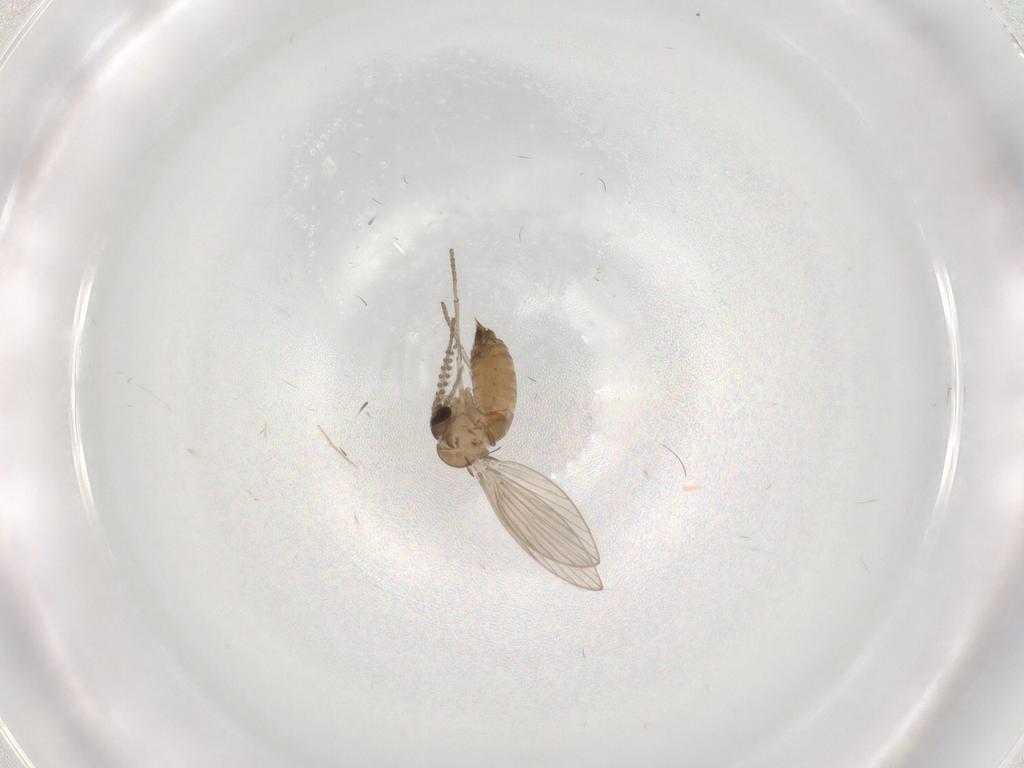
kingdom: Animalia
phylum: Arthropoda
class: Insecta
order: Diptera
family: Psychodidae
